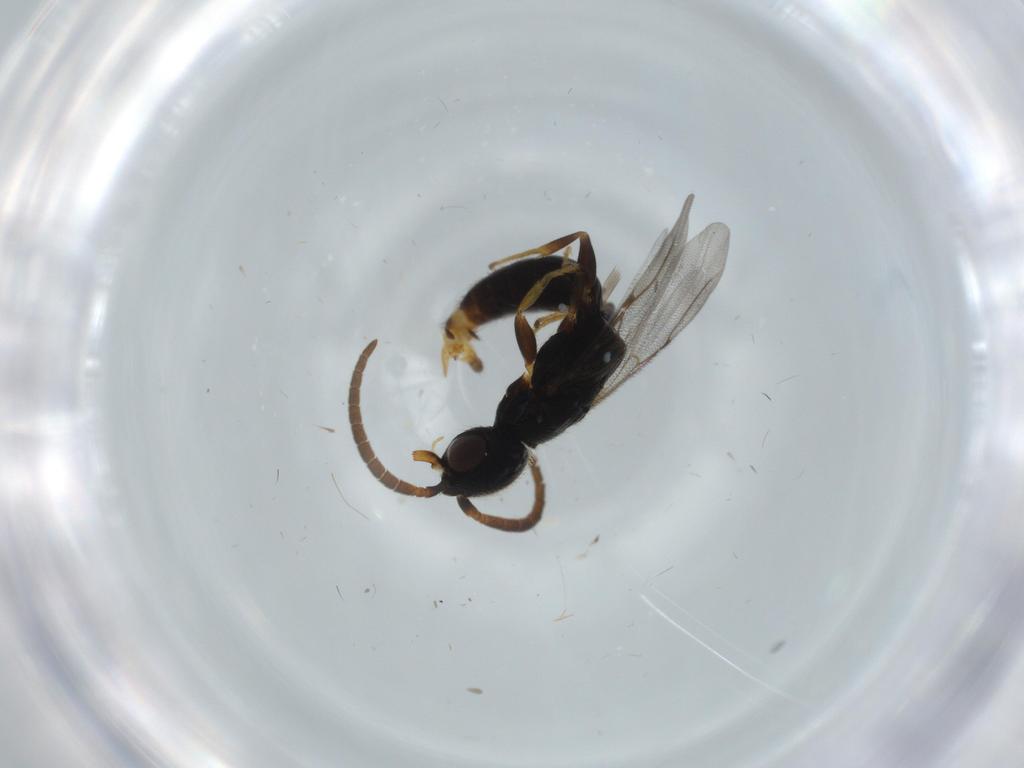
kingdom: Animalia
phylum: Arthropoda
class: Insecta
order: Hymenoptera
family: Bethylidae
